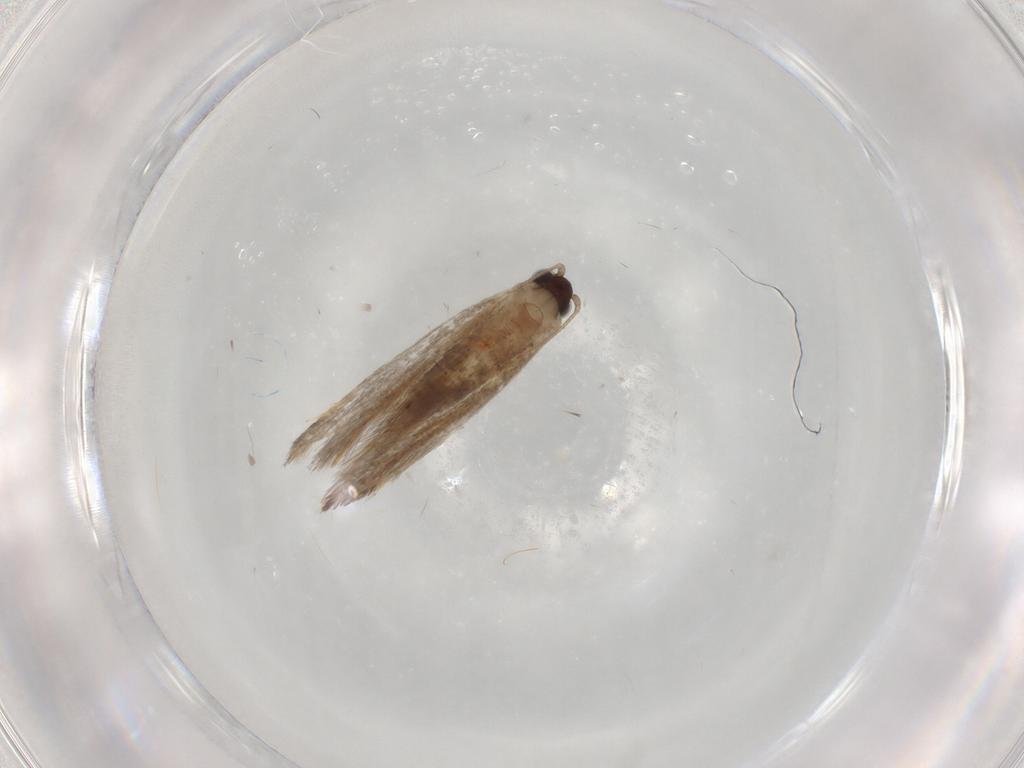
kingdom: Animalia
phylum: Arthropoda
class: Insecta
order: Lepidoptera
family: Tineidae
